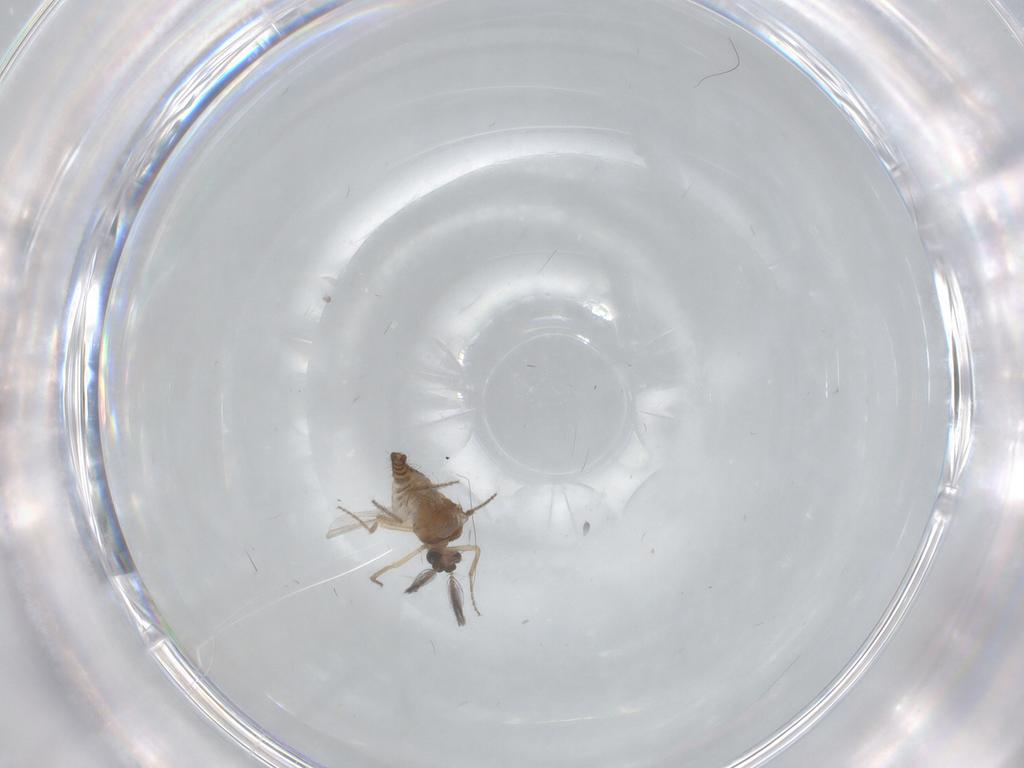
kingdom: Animalia
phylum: Arthropoda
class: Insecta
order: Diptera
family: Ceratopogonidae
